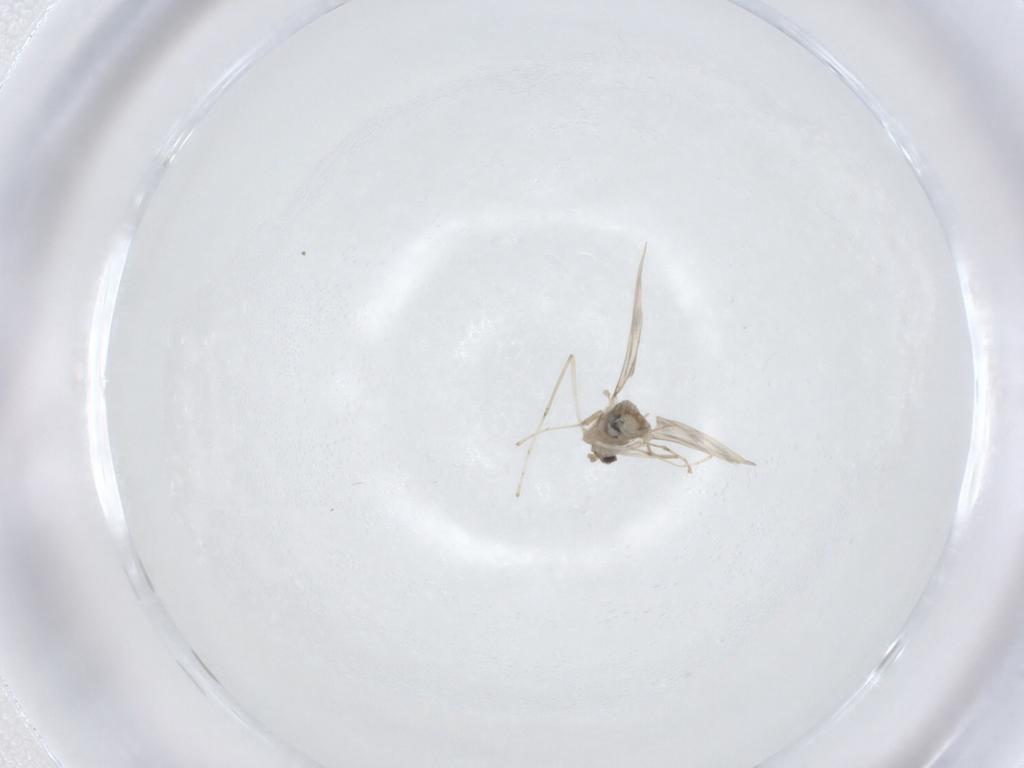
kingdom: Animalia
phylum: Arthropoda
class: Insecta
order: Diptera
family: Cecidomyiidae
